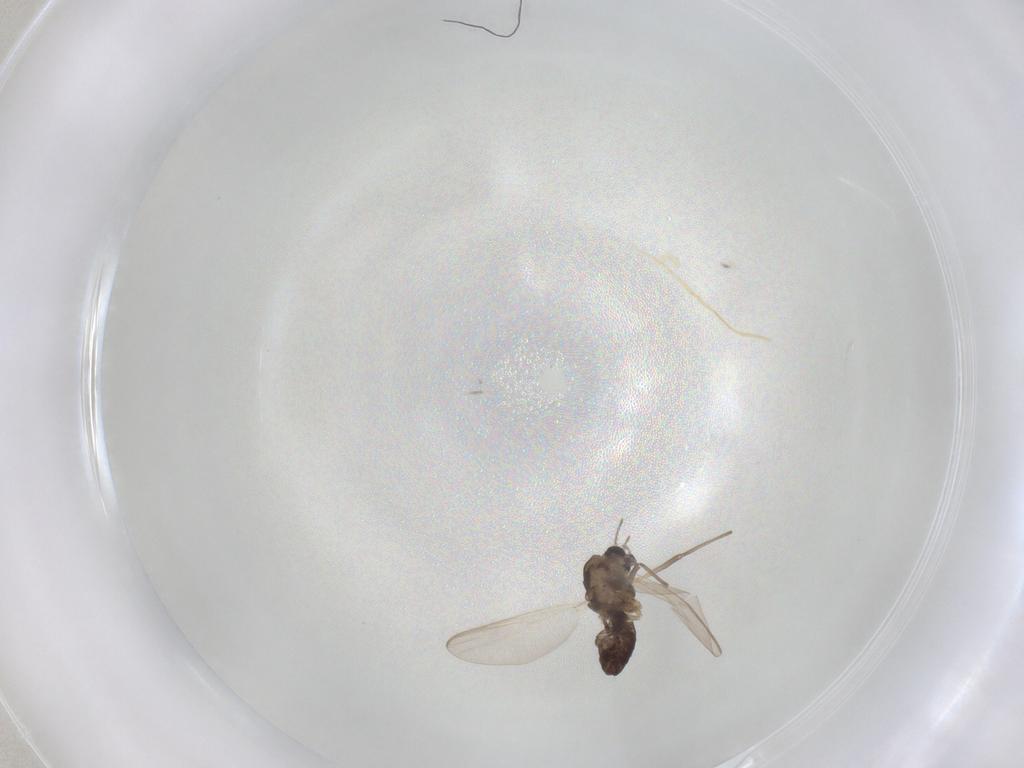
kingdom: Animalia
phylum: Arthropoda
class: Insecta
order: Diptera
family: Chironomidae
